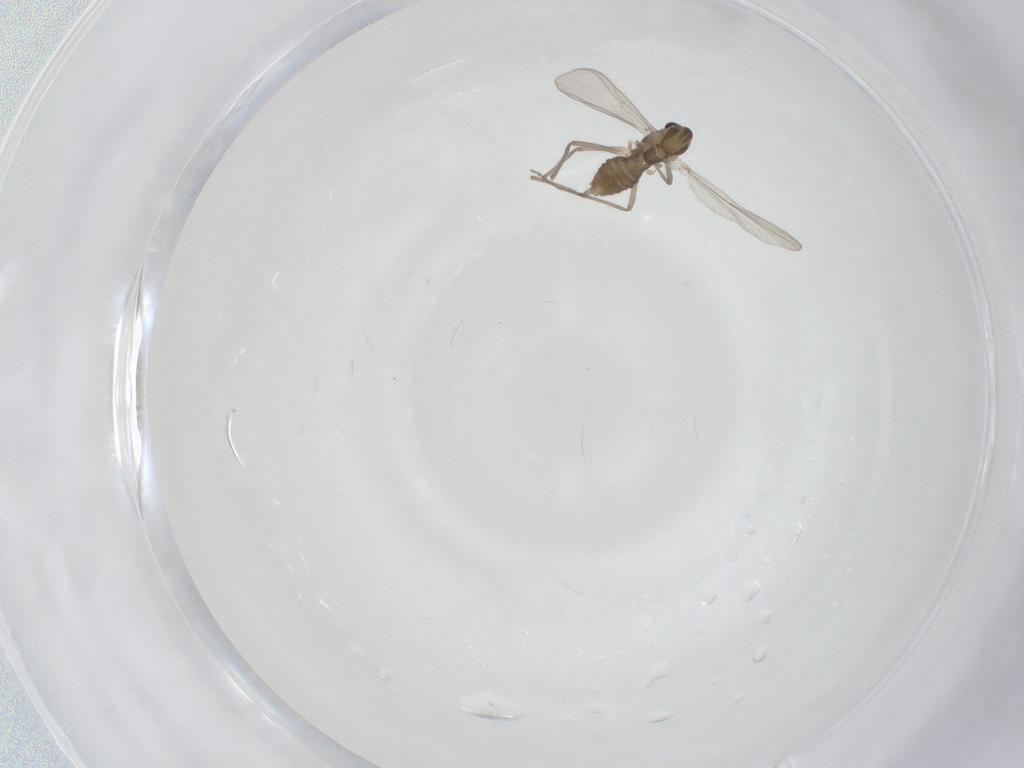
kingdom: Animalia
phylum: Arthropoda
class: Insecta
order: Diptera
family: Chironomidae
